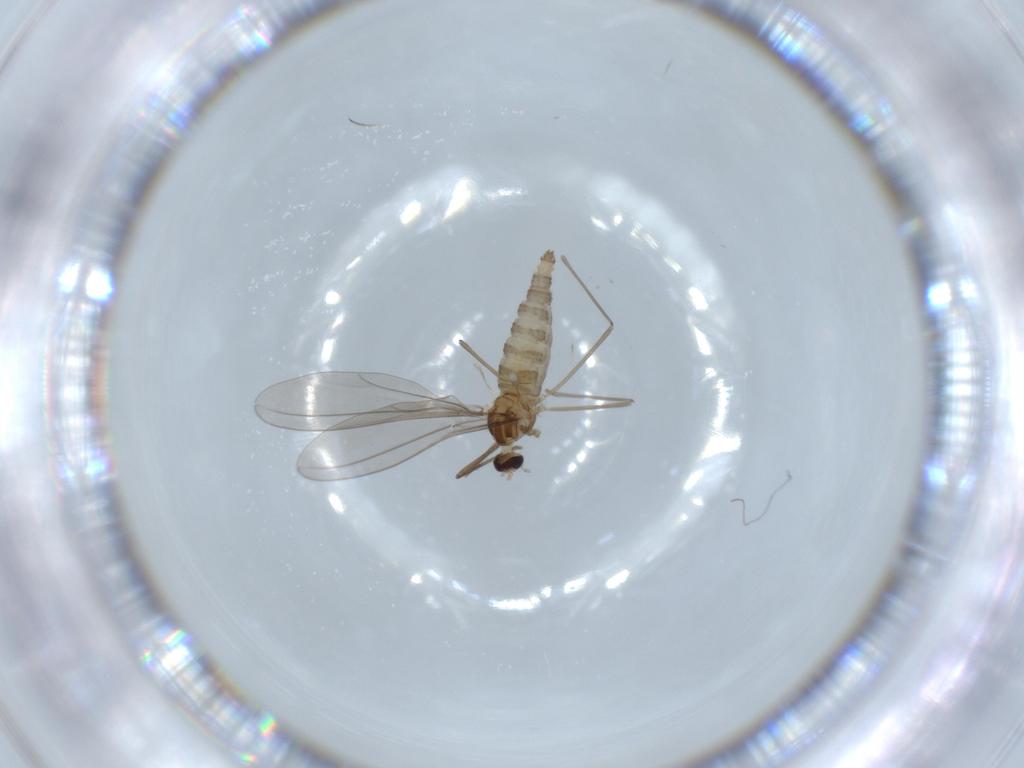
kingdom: Animalia
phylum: Arthropoda
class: Insecta
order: Diptera
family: Cecidomyiidae
